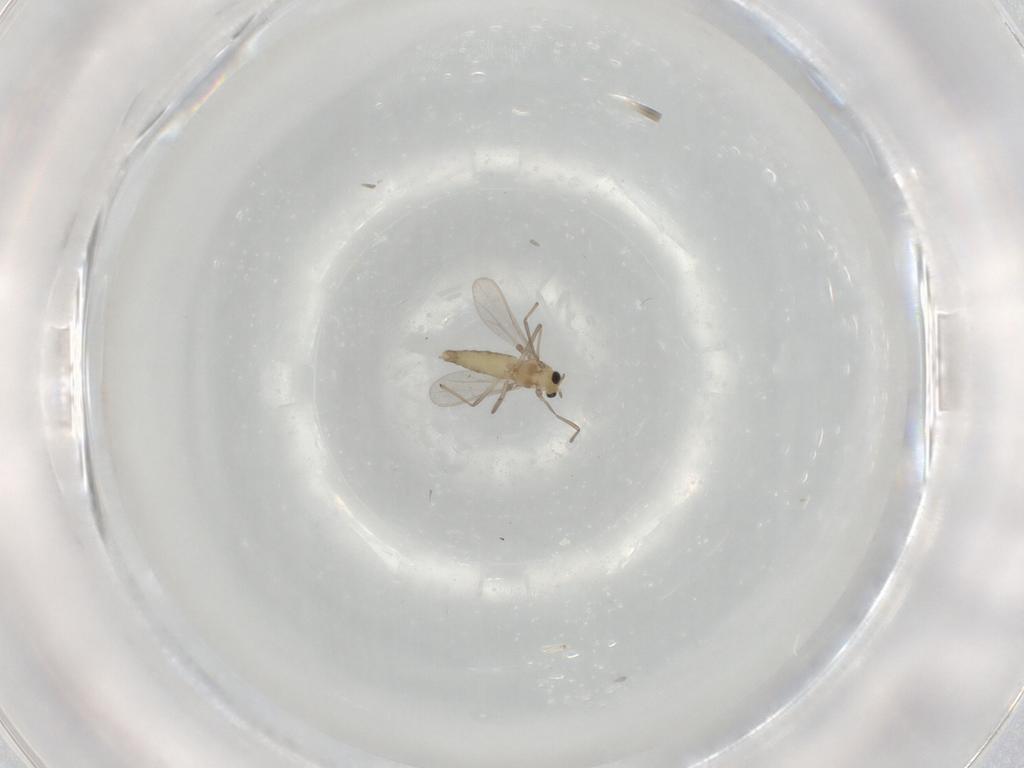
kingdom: Animalia
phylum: Arthropoda
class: Insecta
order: Diptera
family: Chironomidae
